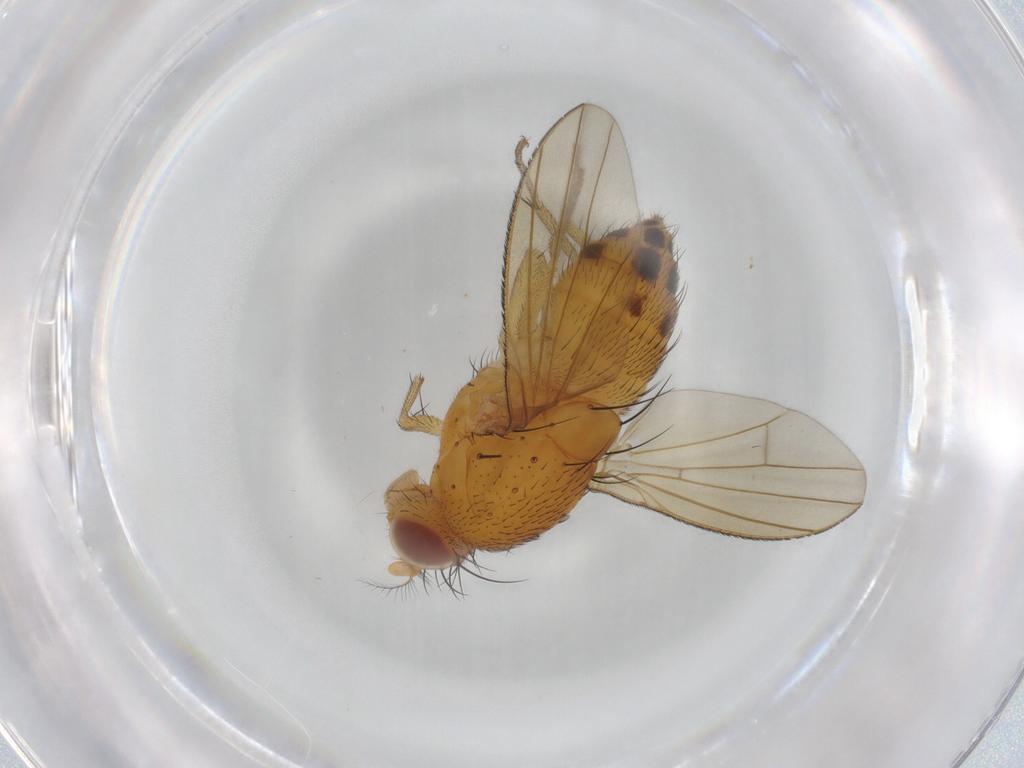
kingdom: Animalia
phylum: Arthropoda
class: Insecta
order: Diptera
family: Lauxaniidae
